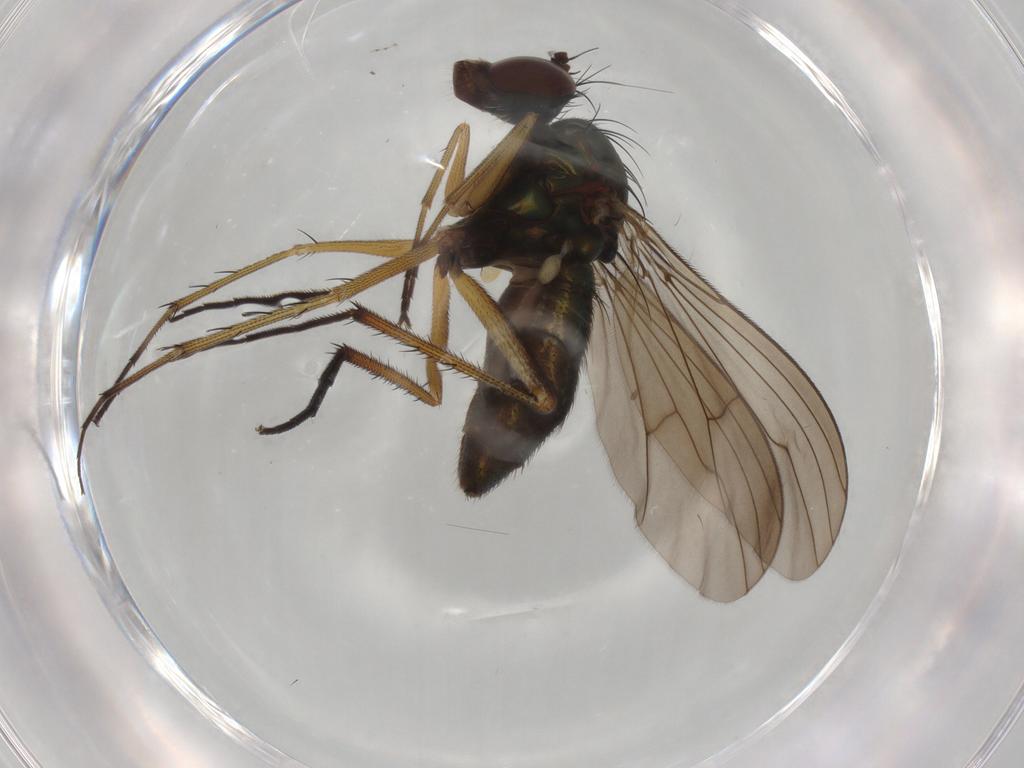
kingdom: Animalia
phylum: Arthropoda
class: Insecta
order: Diptera
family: Dolichopodidae
